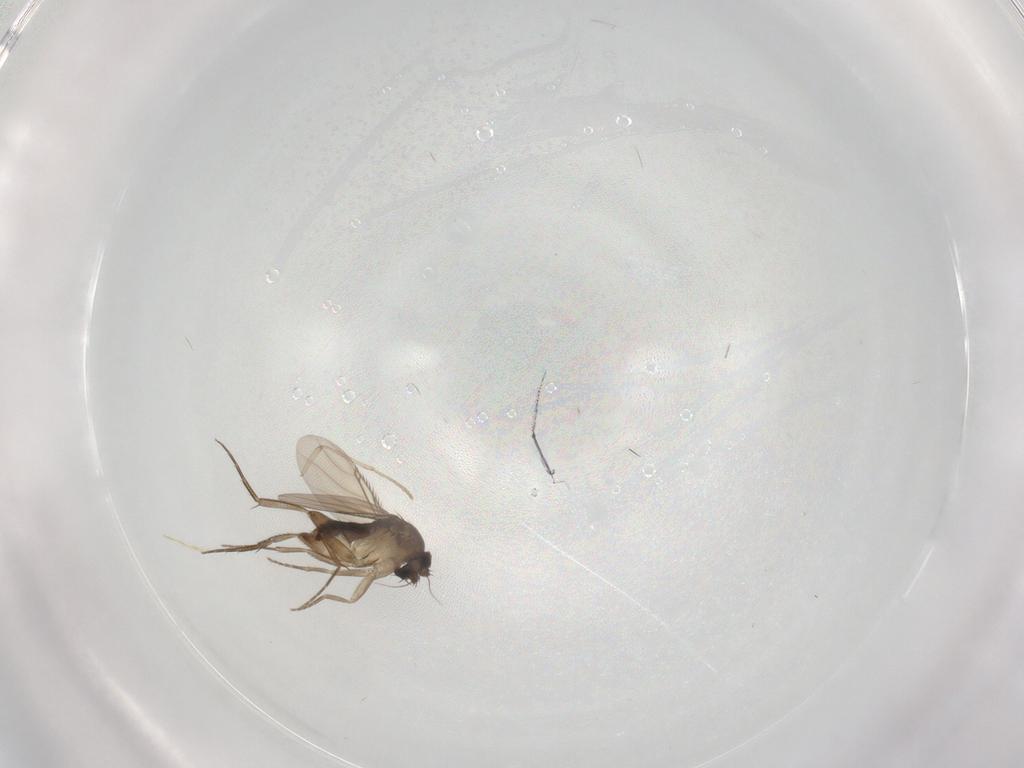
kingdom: Animalia
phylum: Arthropoda
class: Insecta
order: Diptera
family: Phoridae
